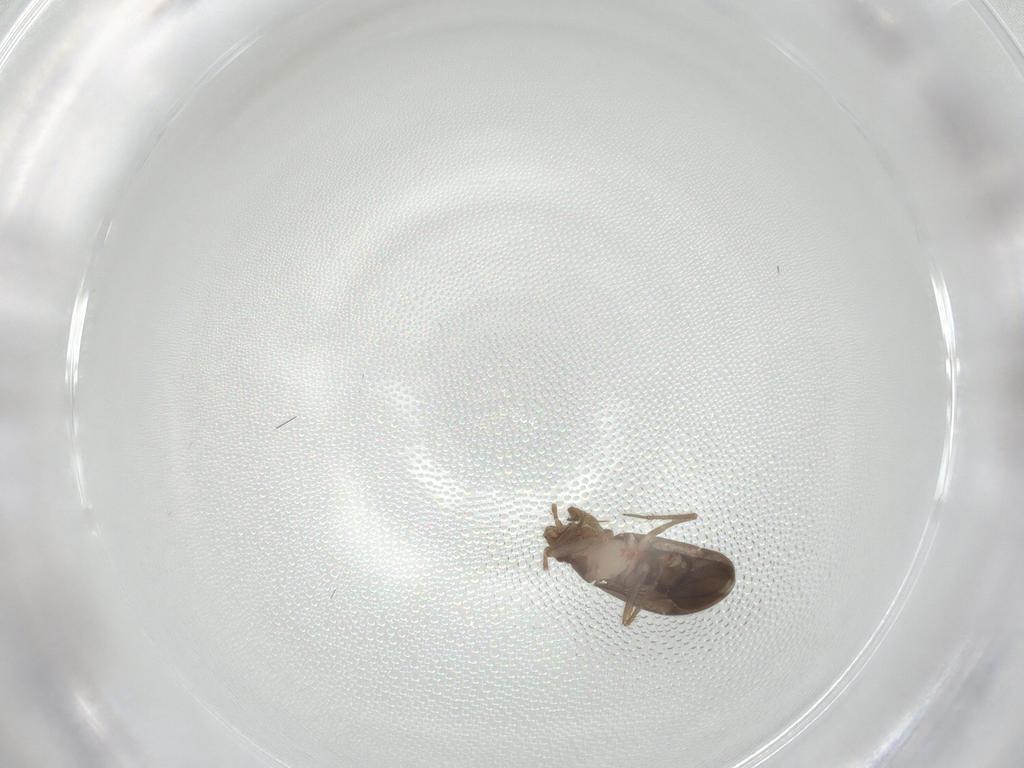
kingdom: Animalia
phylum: Arthropoda
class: Insecta
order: Hemiptera
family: Ceratocombidae
